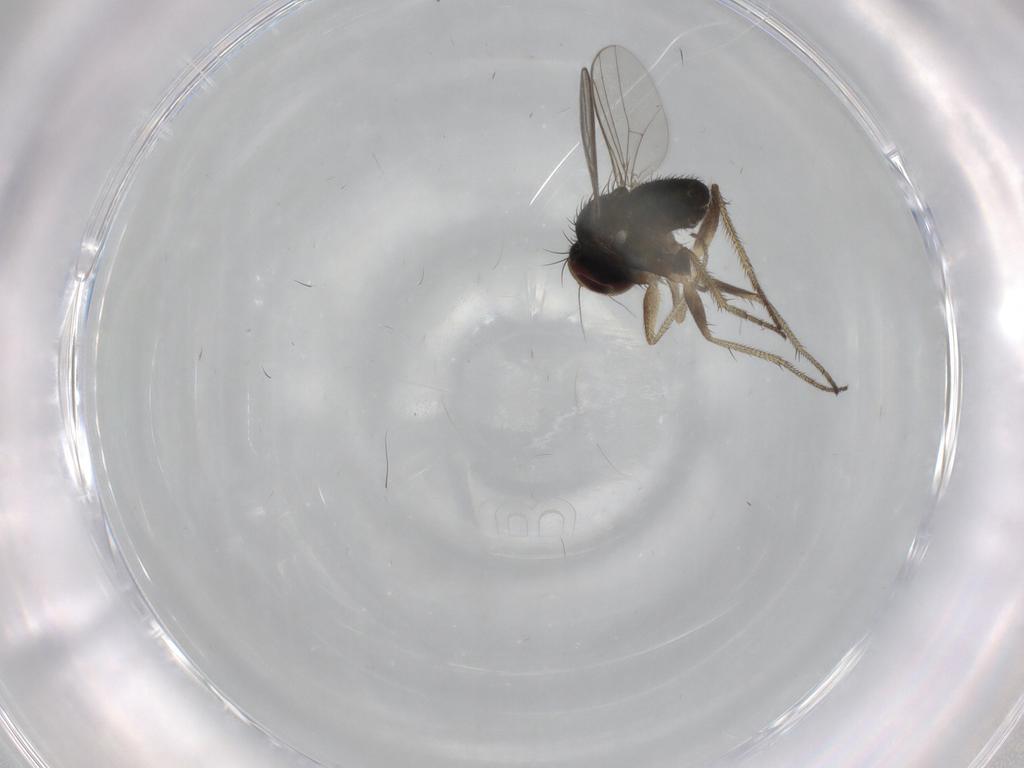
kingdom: Animalia
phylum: Arthropoda
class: Insecta
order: Diptera
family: Dolichopodidae
